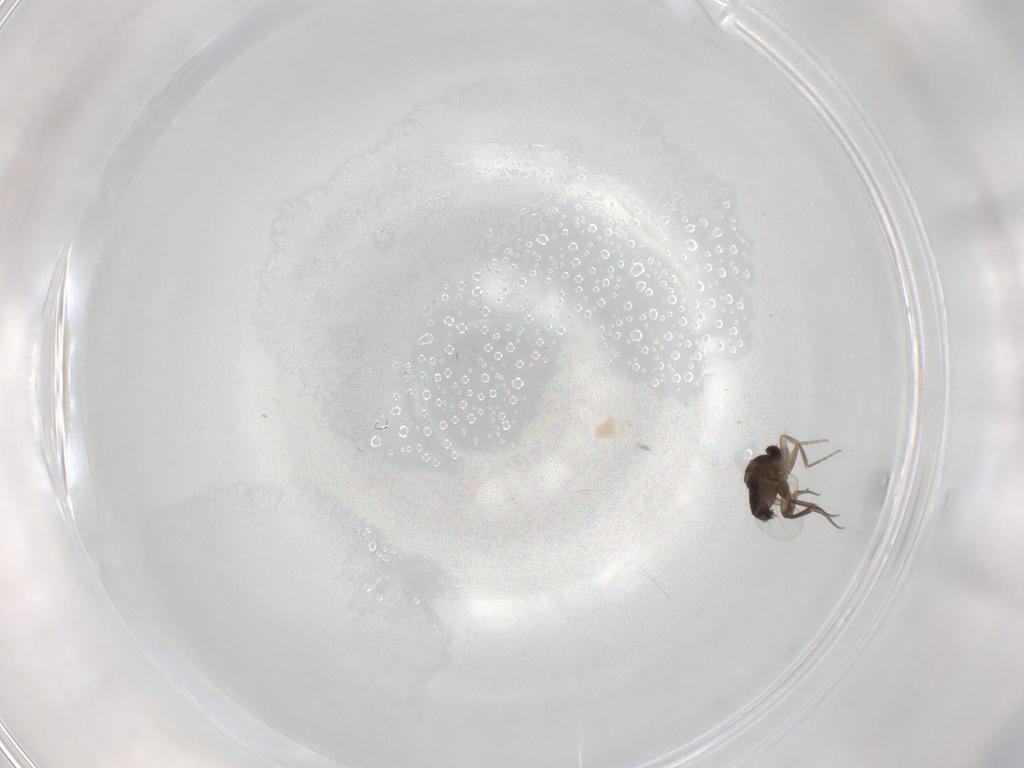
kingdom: Animalia
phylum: Arthropoda
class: Insecta
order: Diptera
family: Phoridae
